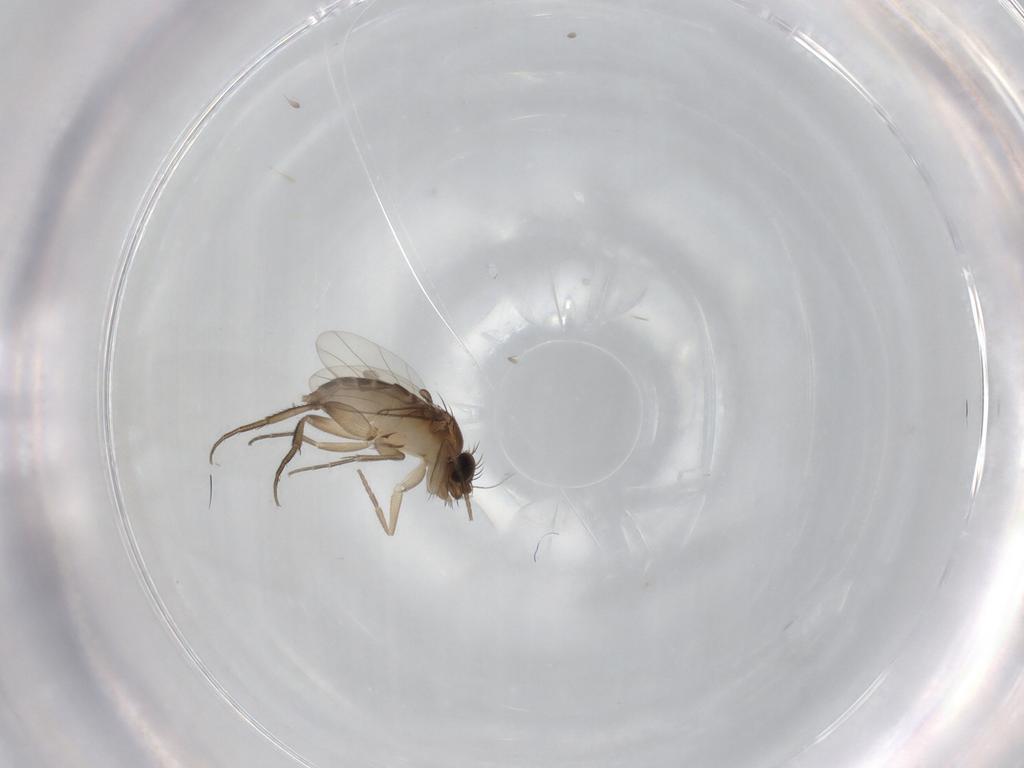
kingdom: Animalia
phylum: Arthropoda
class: Insecta
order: Diptera
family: Phoridae
